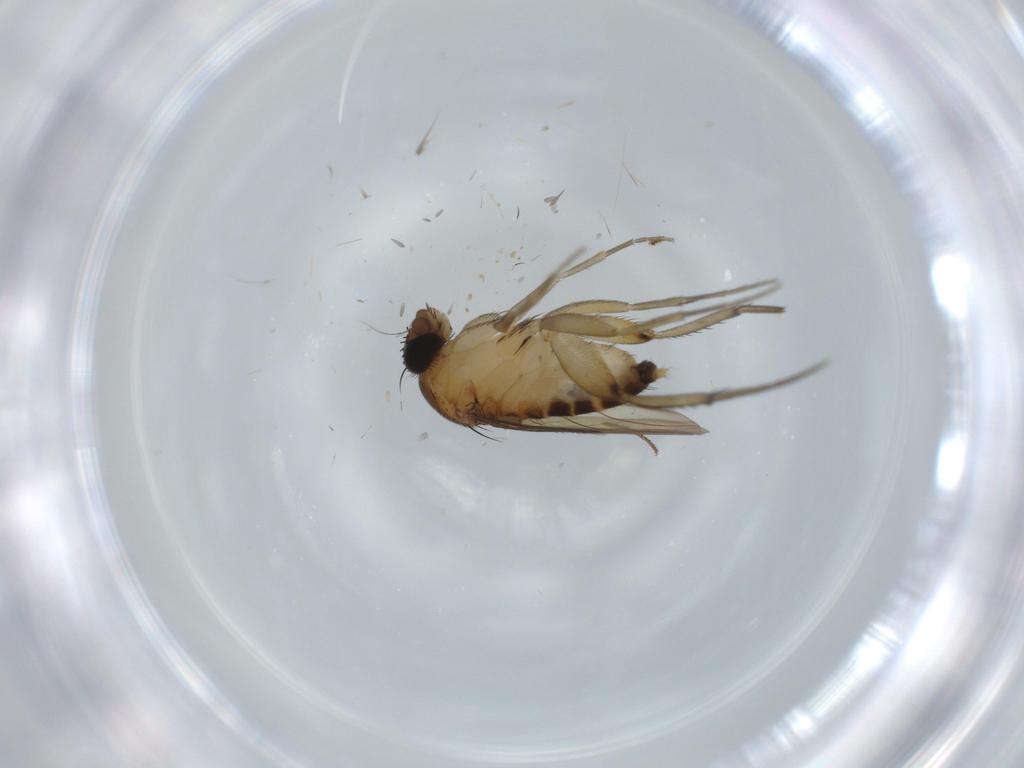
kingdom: Animalia
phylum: Arthropoda
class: Insecta
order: Diptera
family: Phoridae
